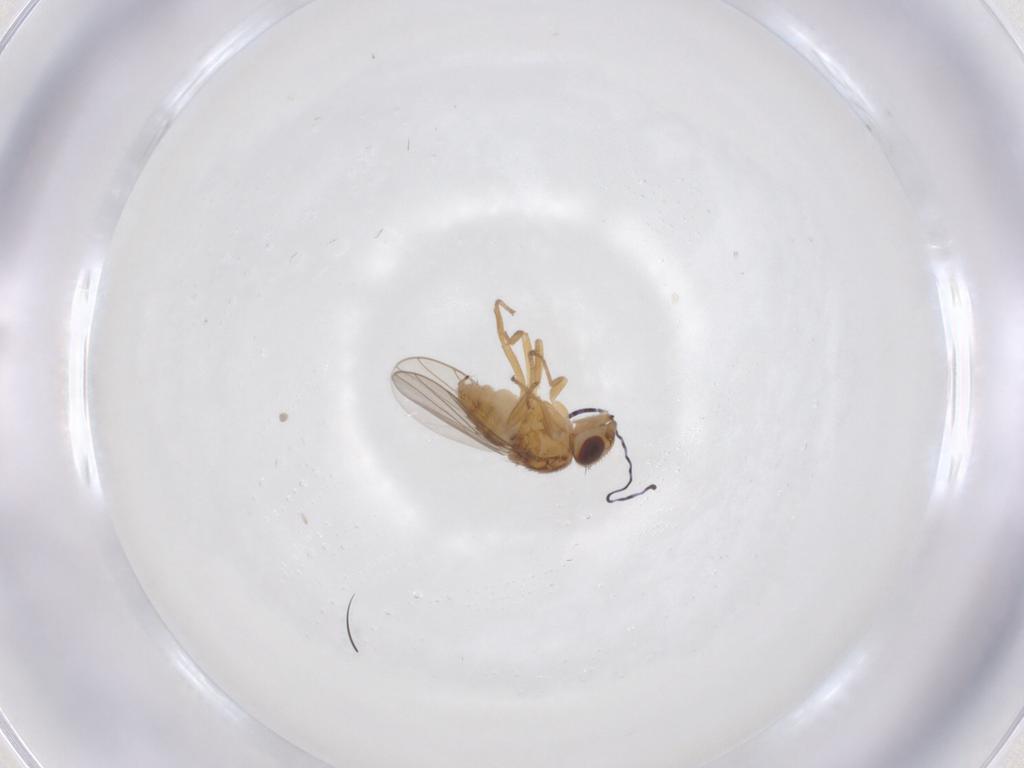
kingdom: Animalia
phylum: Arthropoda
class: Insecta
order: Diptera
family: Chloropidae
